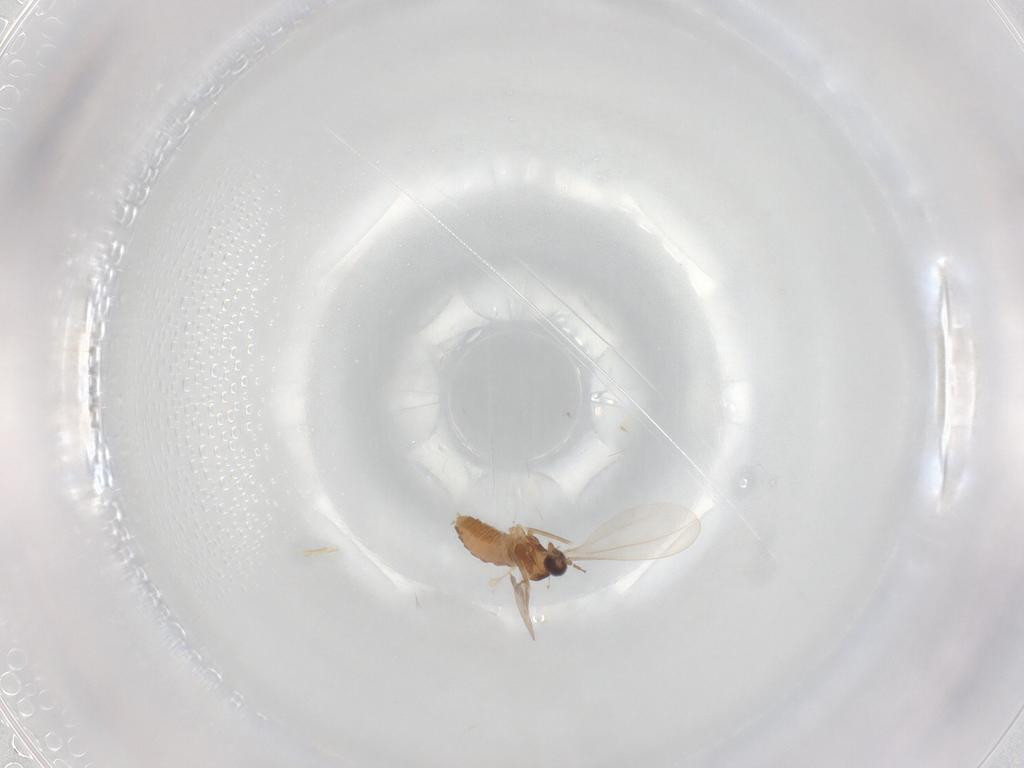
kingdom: Animalia
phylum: Arthropoda
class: Insecta
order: Diptera
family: Cecidomyiidae
